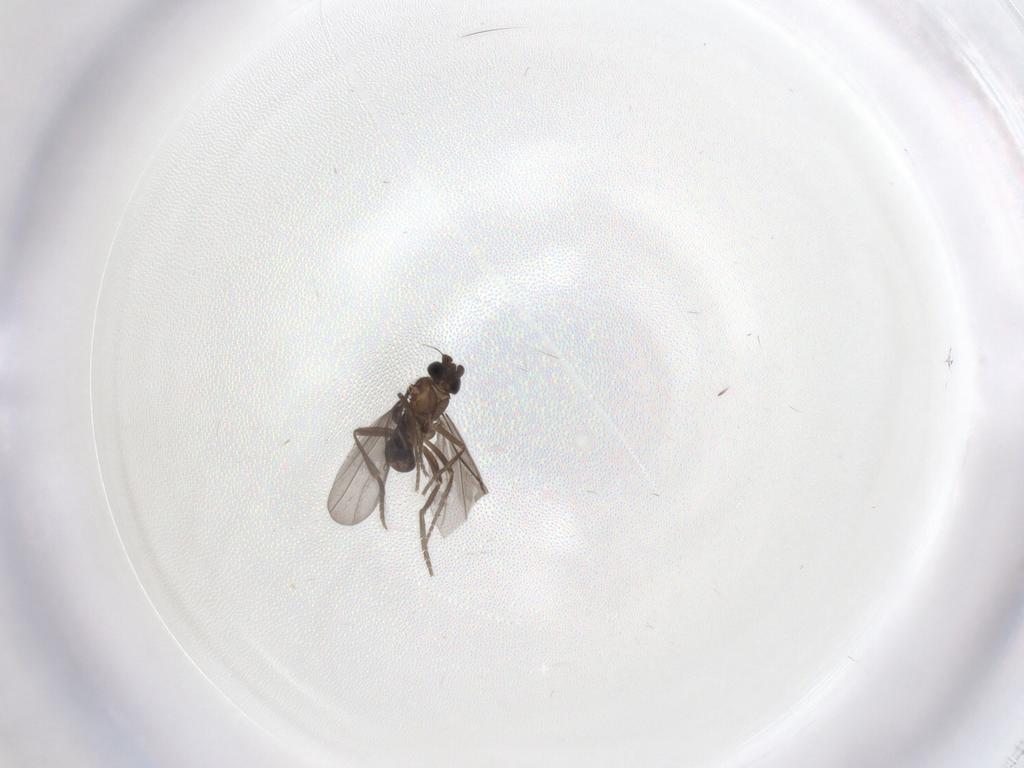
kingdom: Animalia
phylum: Arthropoda
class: Insecta
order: Diptera
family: Phoridae
